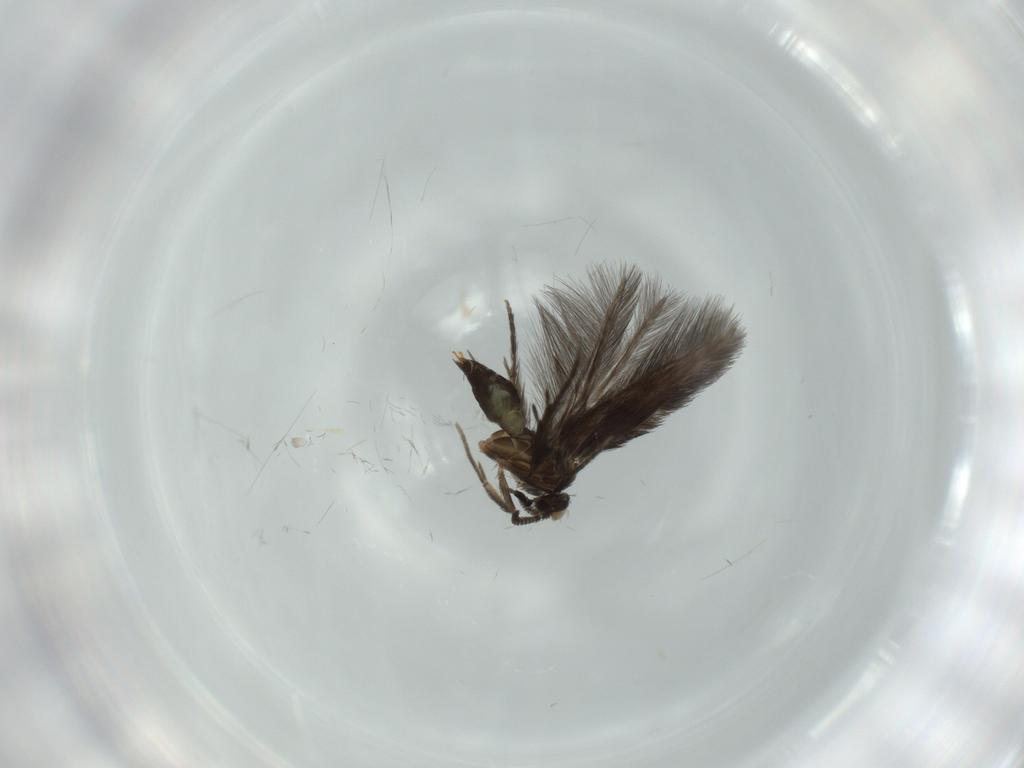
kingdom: Animalia
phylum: Arthropoda
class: Insecta
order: Trichoptera
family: Hydroptilidae
